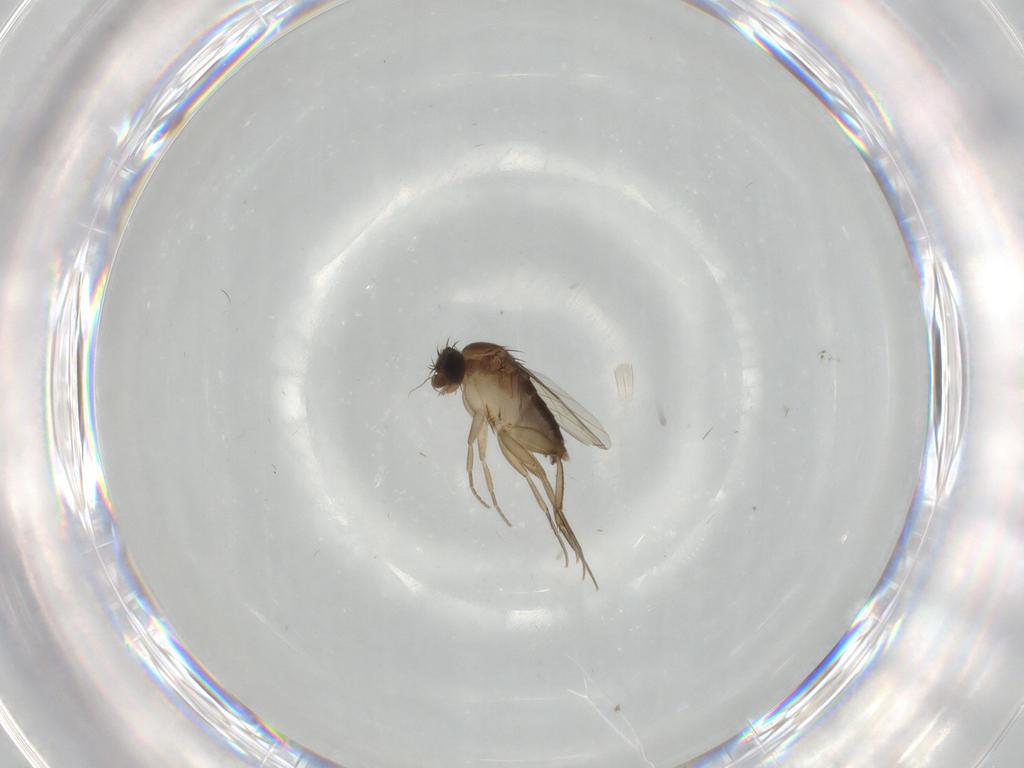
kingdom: Animalia
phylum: Arthropoda
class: Insecta
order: Diptera
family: Phoridae
